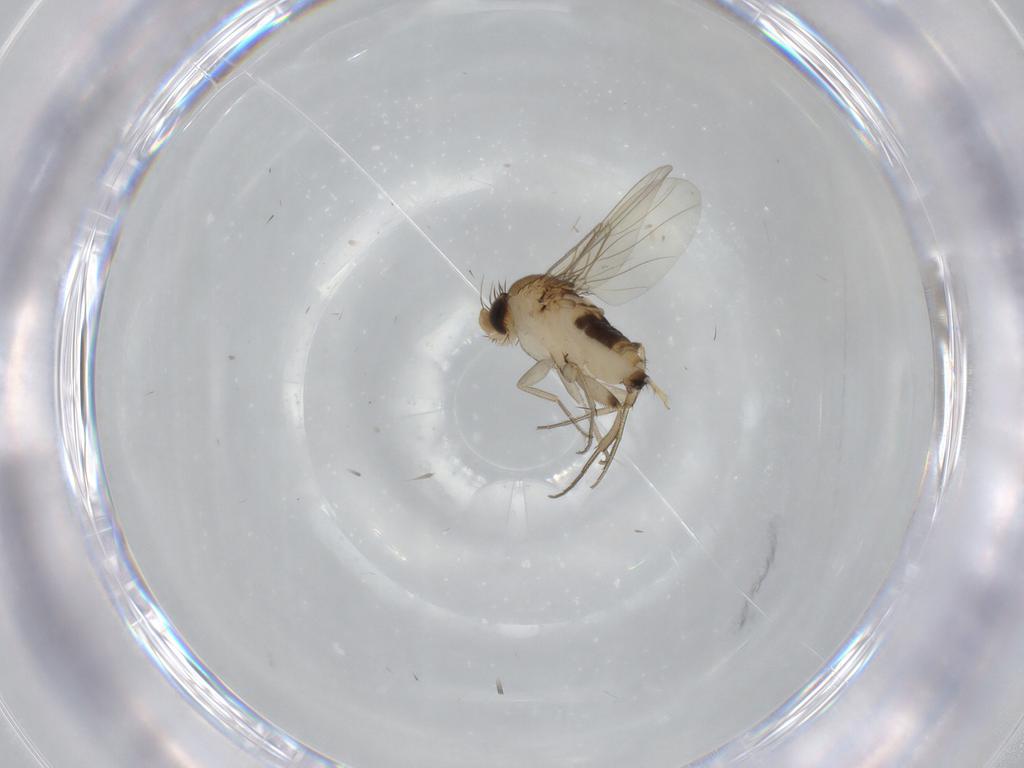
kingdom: Animalia
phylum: Arthropoda
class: Insecta
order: Diptera
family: Phoridae
